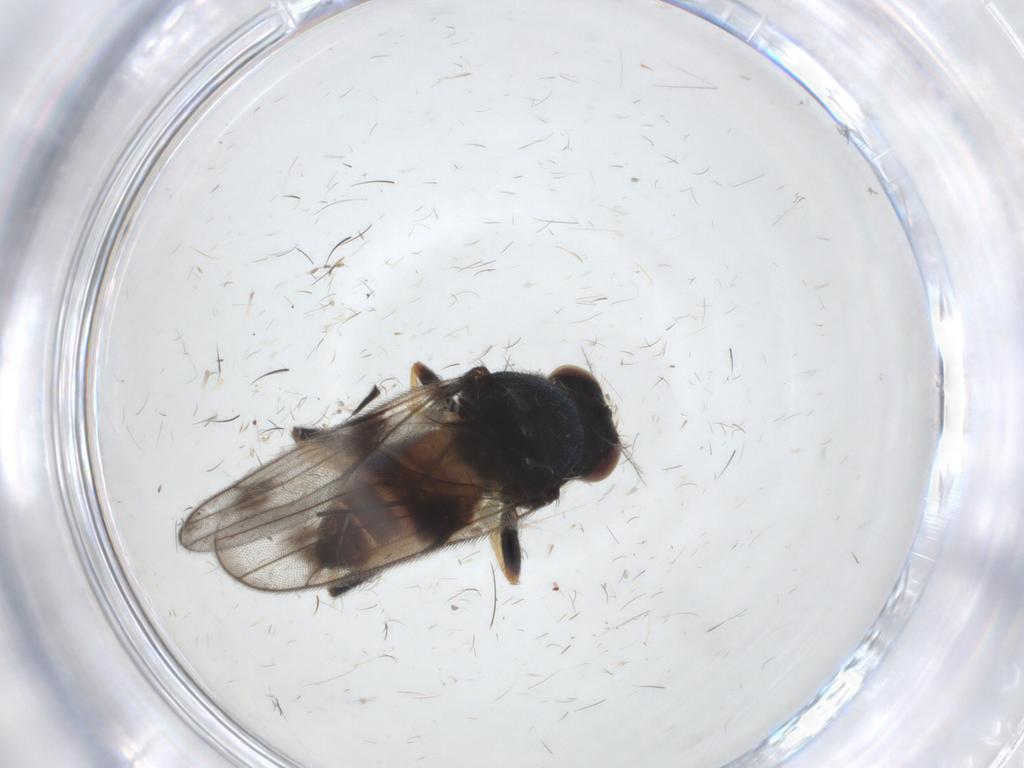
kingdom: Animalia
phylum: Arthropoda
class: Insecta
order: Diptera
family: Chloropidae
